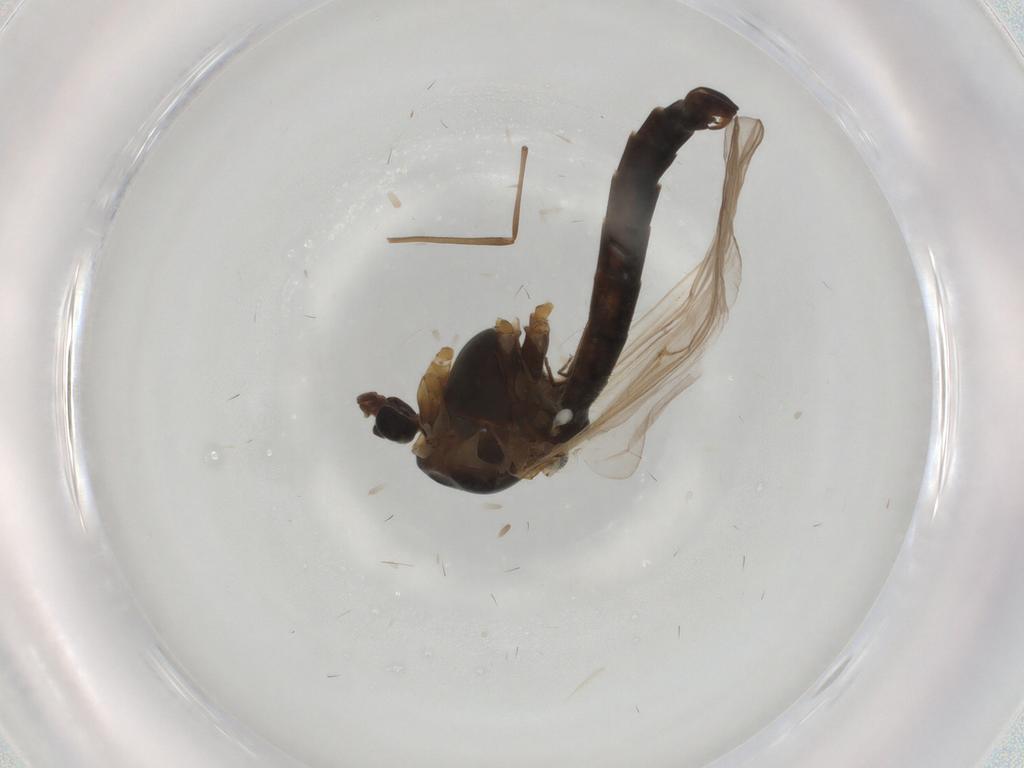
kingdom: Animalia
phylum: Arthropoda
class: Insecta
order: Diptera
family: Chironomidae
